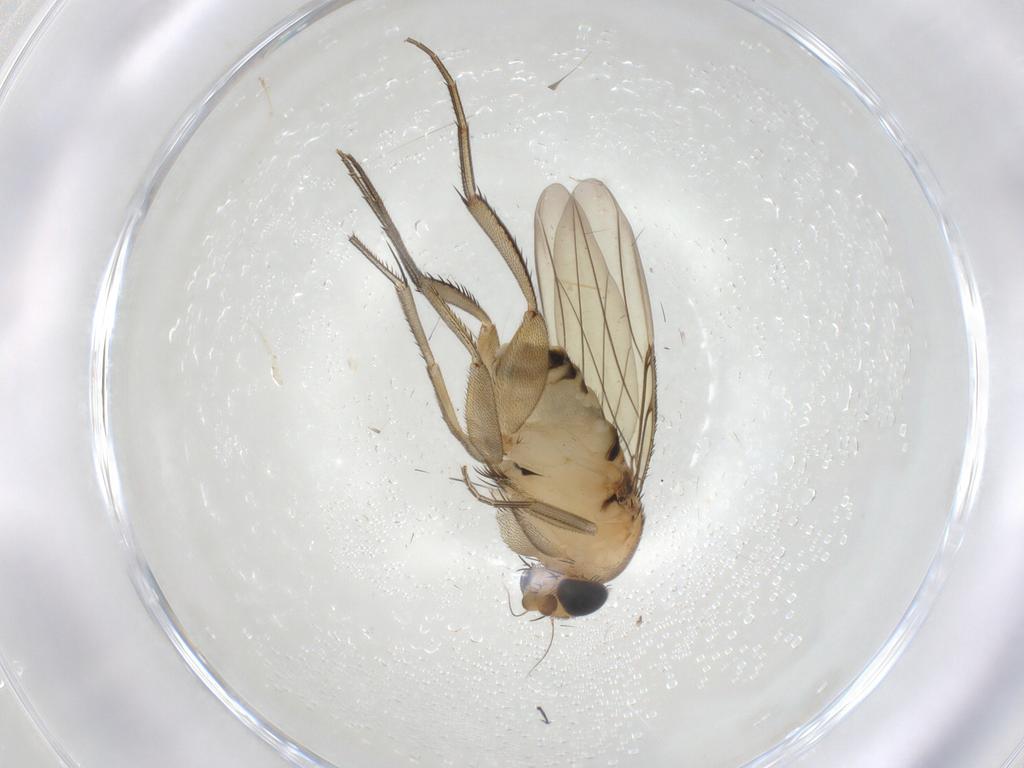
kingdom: Animalia
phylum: Arthropoda
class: Insecta
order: Diptera
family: Phoridae
